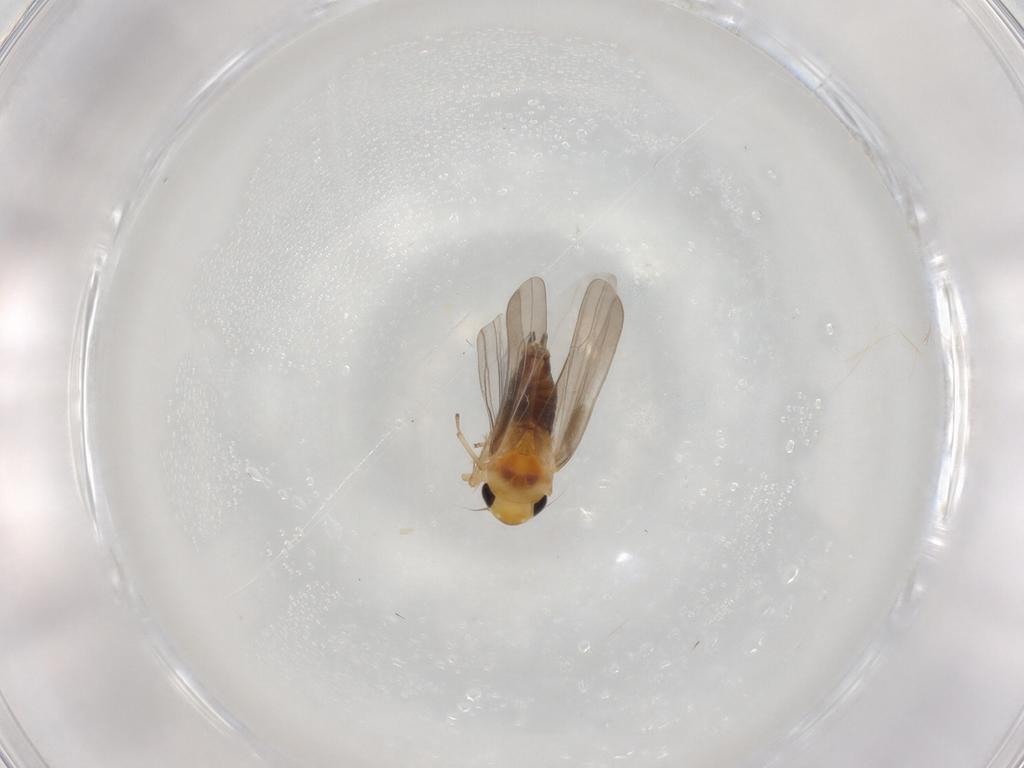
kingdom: Animalia
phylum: Arthropoda
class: Insecta
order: Hemiptera
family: Cicadellidae
